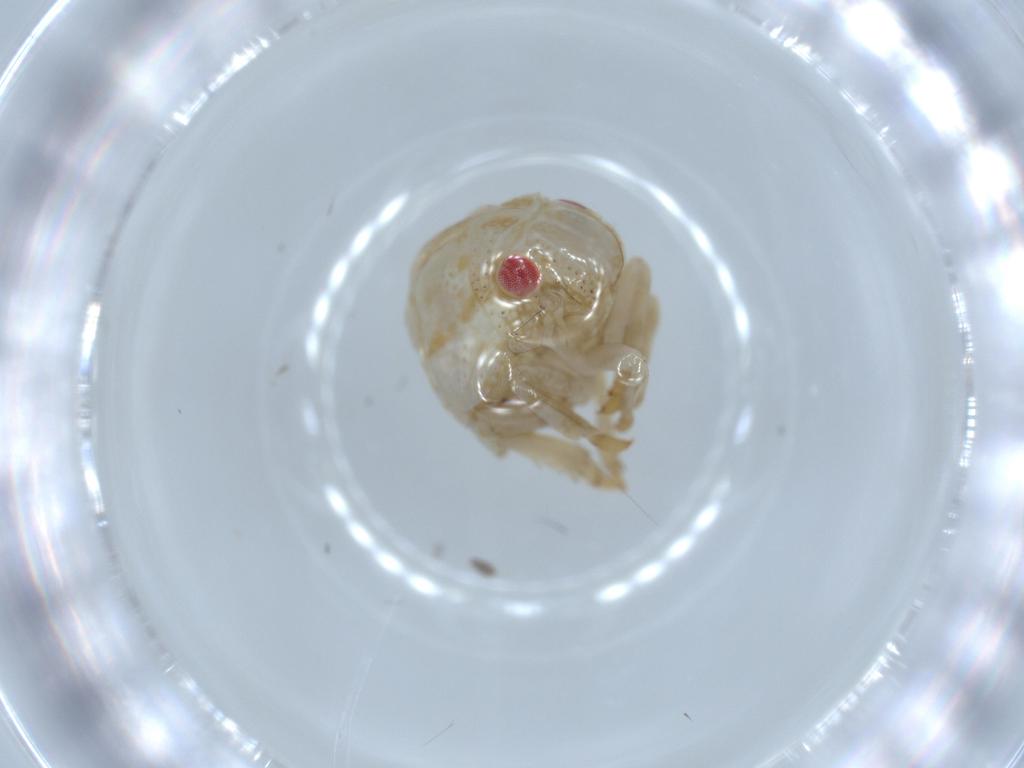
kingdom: Animalia
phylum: Arthropoda
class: Insecta
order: Hemiptera
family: Acanaloniidae
